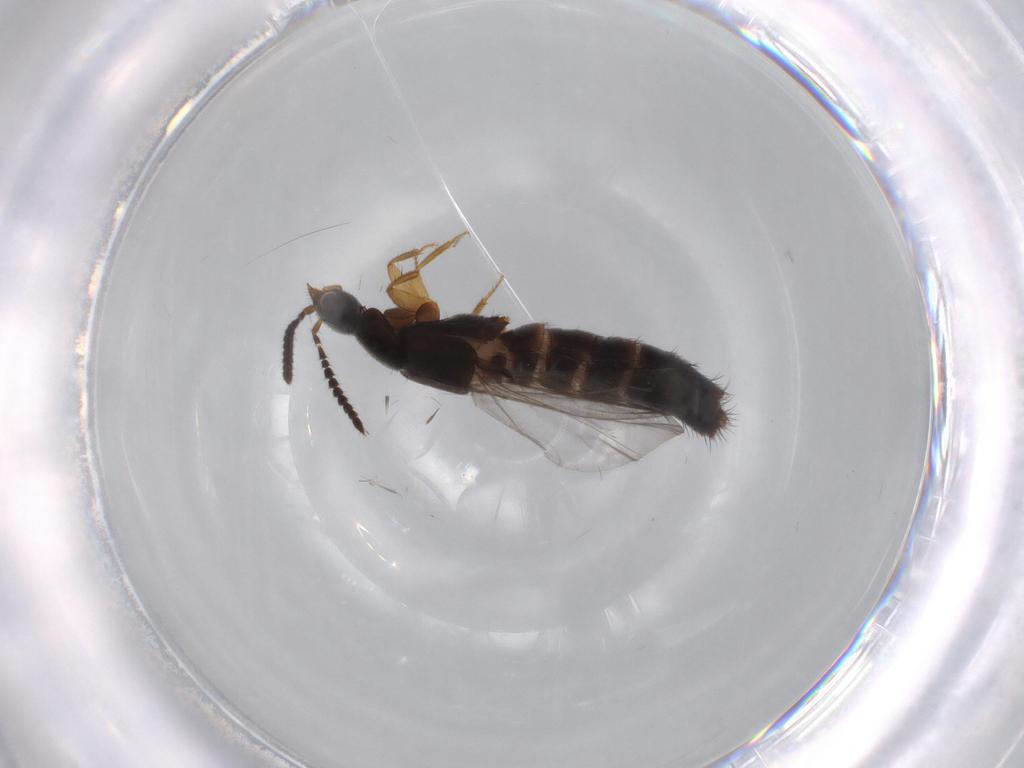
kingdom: Animalia
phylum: Arthropoda
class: Insecta
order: Coleoptera
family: Staphylinidae
